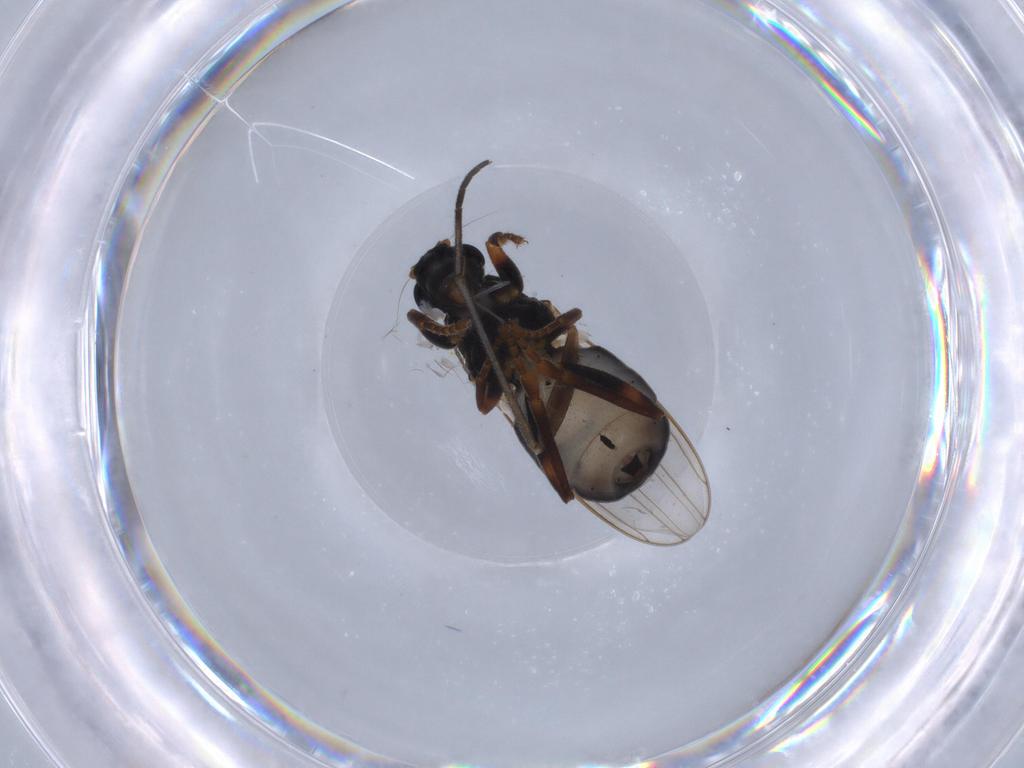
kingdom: Animalia
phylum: Arthropoda
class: Insecta
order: Diptera
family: Sphaeroceridae
